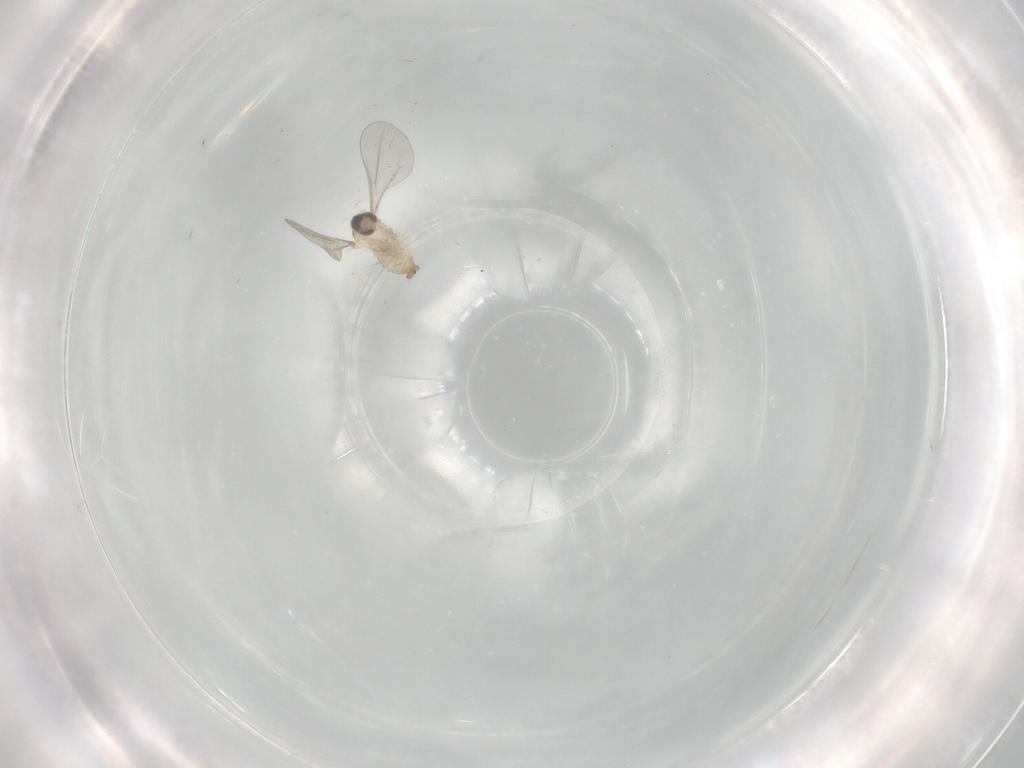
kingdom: Animalia
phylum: Arthropoda
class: Insecta
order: Diptera
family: Cecidomyiidae
